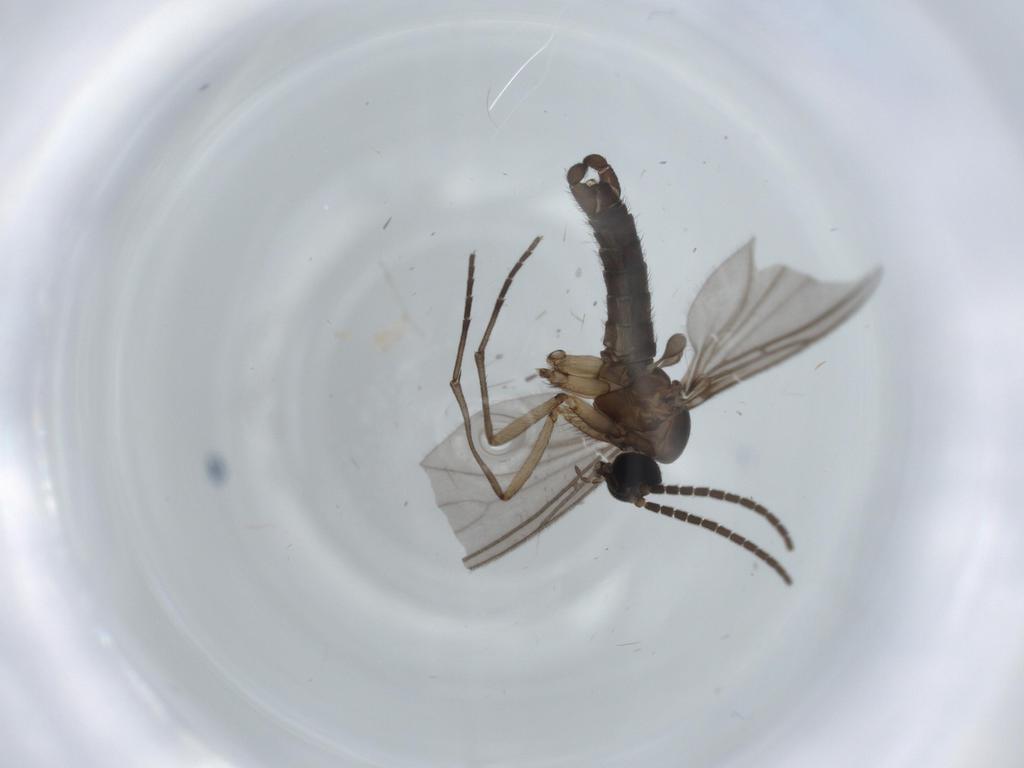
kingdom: Animalia
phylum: Arthropoda
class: Insecta
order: Diptera
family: Sciaridae
